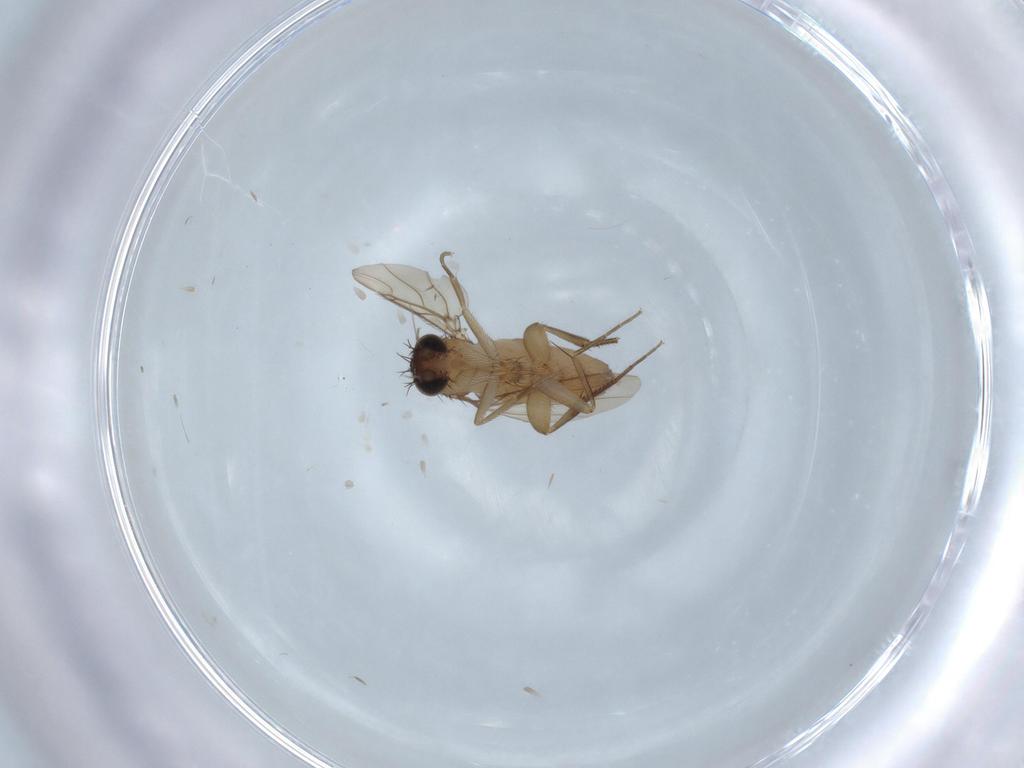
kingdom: Animalia
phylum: Arthropoda
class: Insecta
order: Diptera
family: Phoridae
